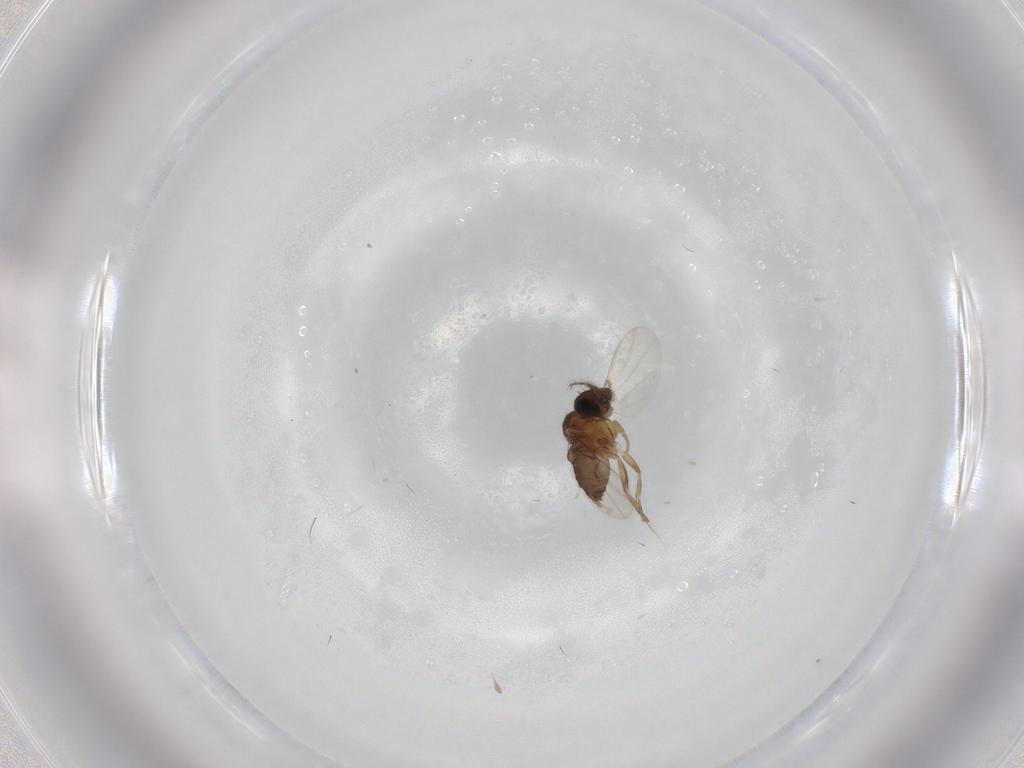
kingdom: Animalia
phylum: Arthropoda
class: Insecta
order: Diptera
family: Phoridae
